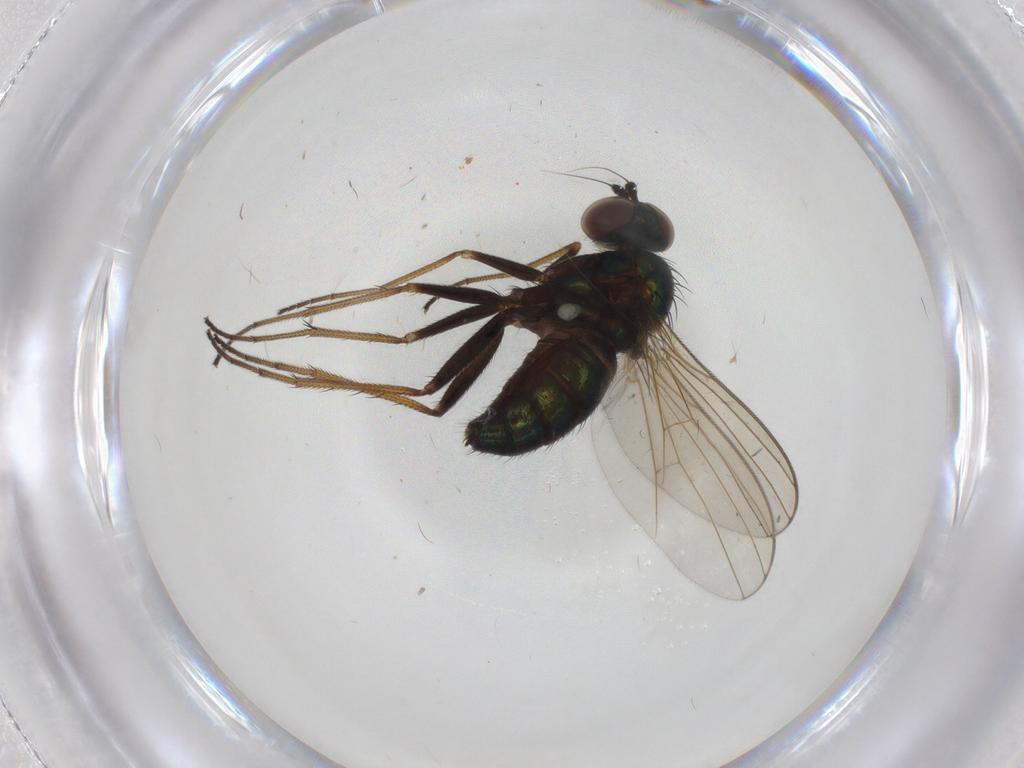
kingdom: Animalia
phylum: Arthropoda
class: Insecta
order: Diptera
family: Dolichopodidae
